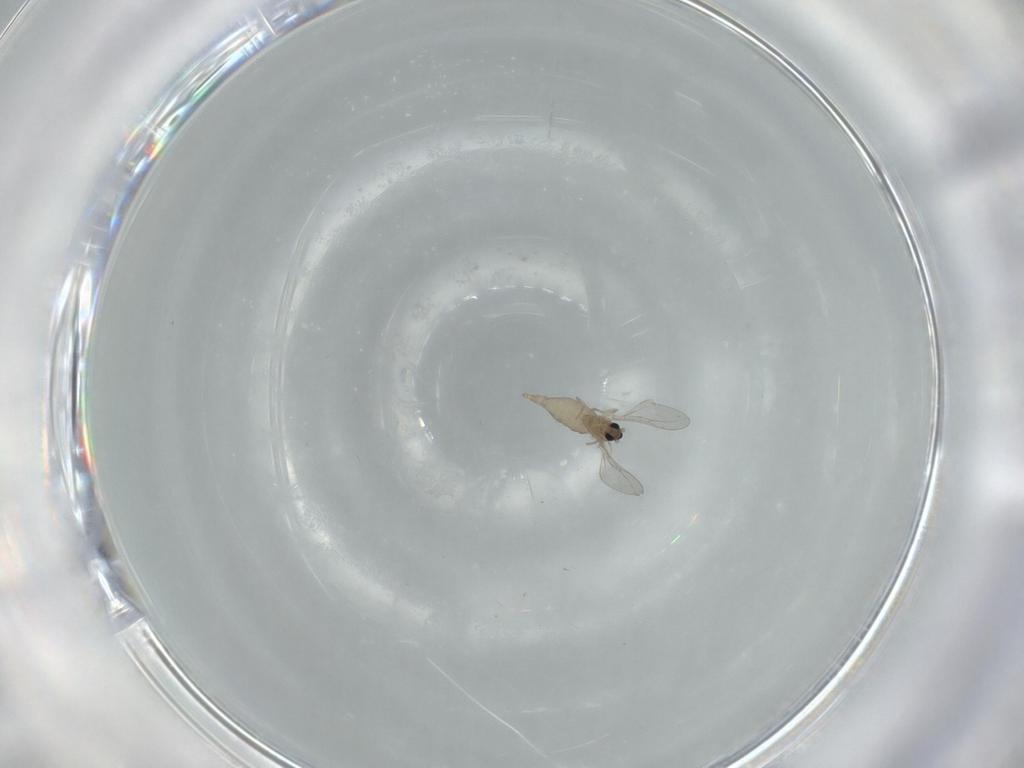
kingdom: Animalia
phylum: Arthropoda
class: Insecta
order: Diptera
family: Cecidomyiidae
